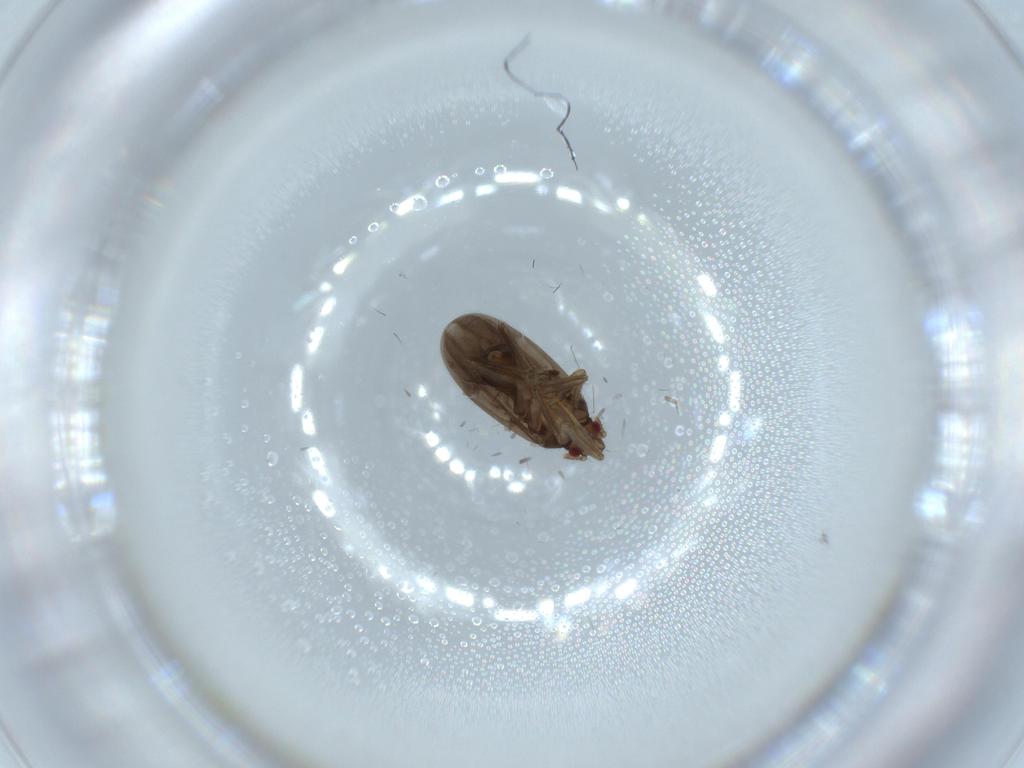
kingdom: Animalia
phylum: Arthropoda
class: Insecta
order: Hemiptera
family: Ceratocombidae
